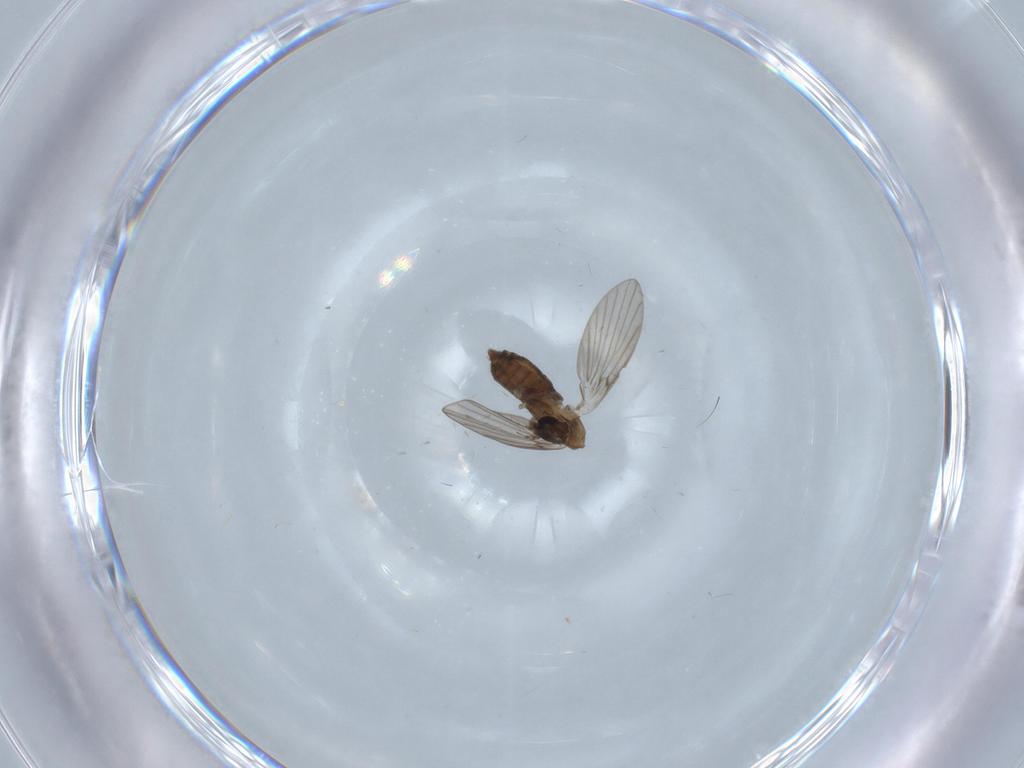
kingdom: Animalia
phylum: Arthropoda
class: Insecta
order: Diptera
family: Psychodidae
